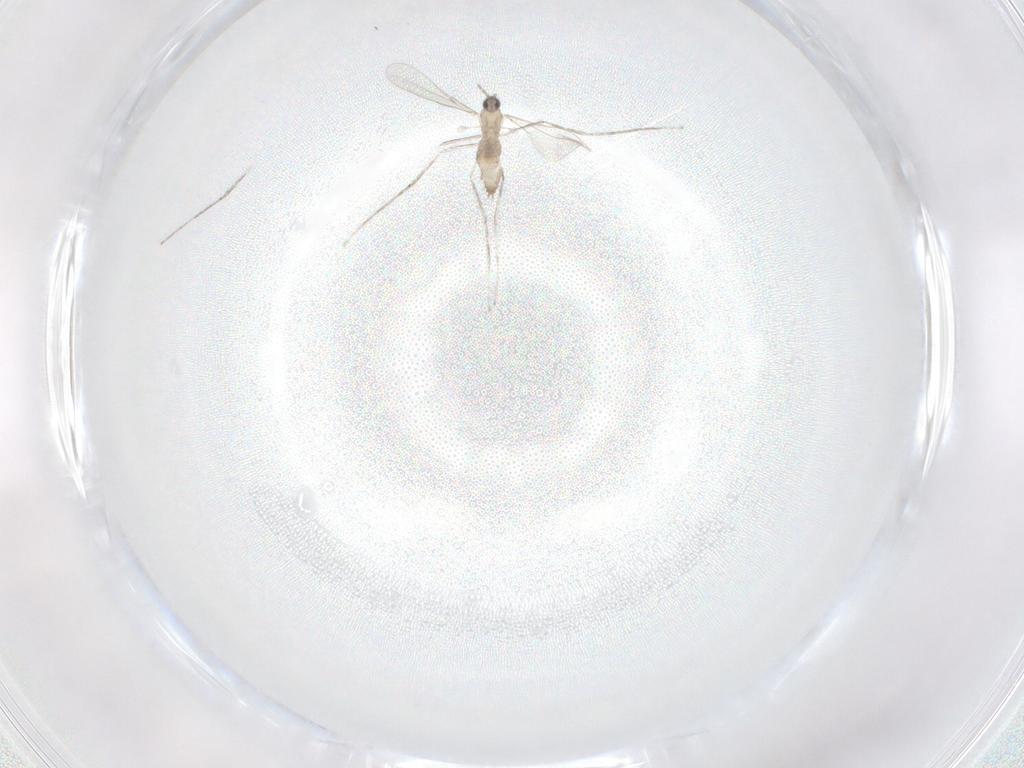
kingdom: Animalia
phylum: Arthropoda
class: Insecta
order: Diptera
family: Cecidomyiidae
